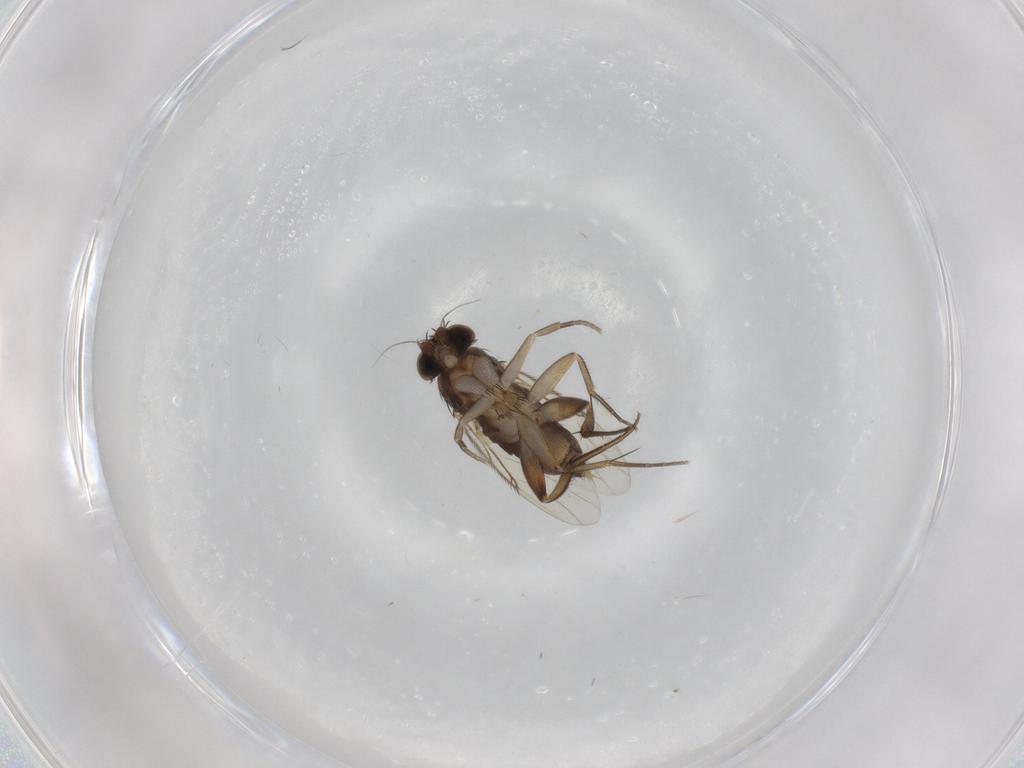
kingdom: Animalia
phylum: Arthropoda
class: Insecta
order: Diptera
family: Phoridae
